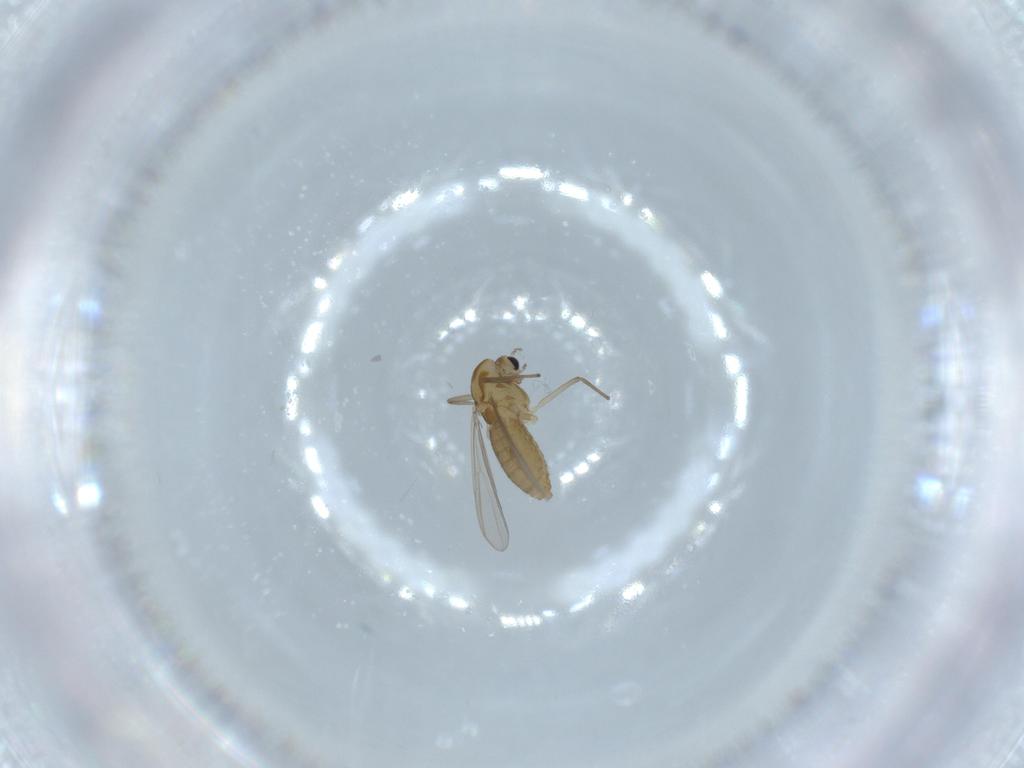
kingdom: Animalia
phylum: Arthropoda
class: Insecta
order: Diptera
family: Chironomidae
